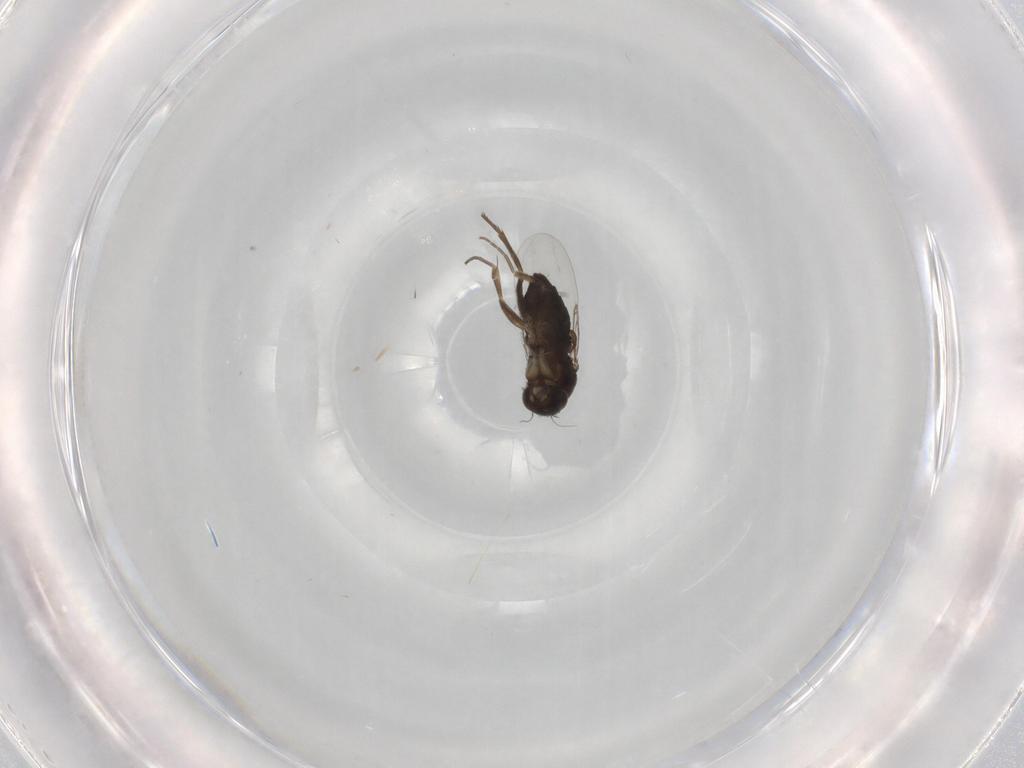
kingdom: Animalia
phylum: Arthropoda
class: Insecta
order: Diptera
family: Phoridae
